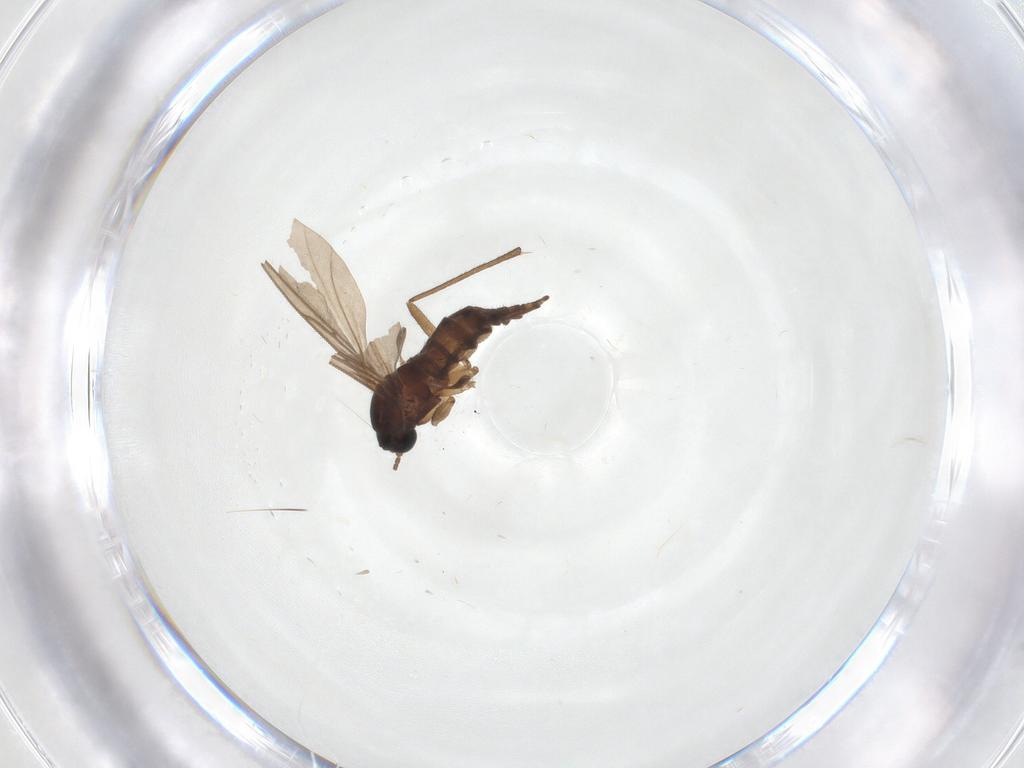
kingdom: Animalia
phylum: Arthropoda
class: Insecta
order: Diptera
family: Sciaridae
